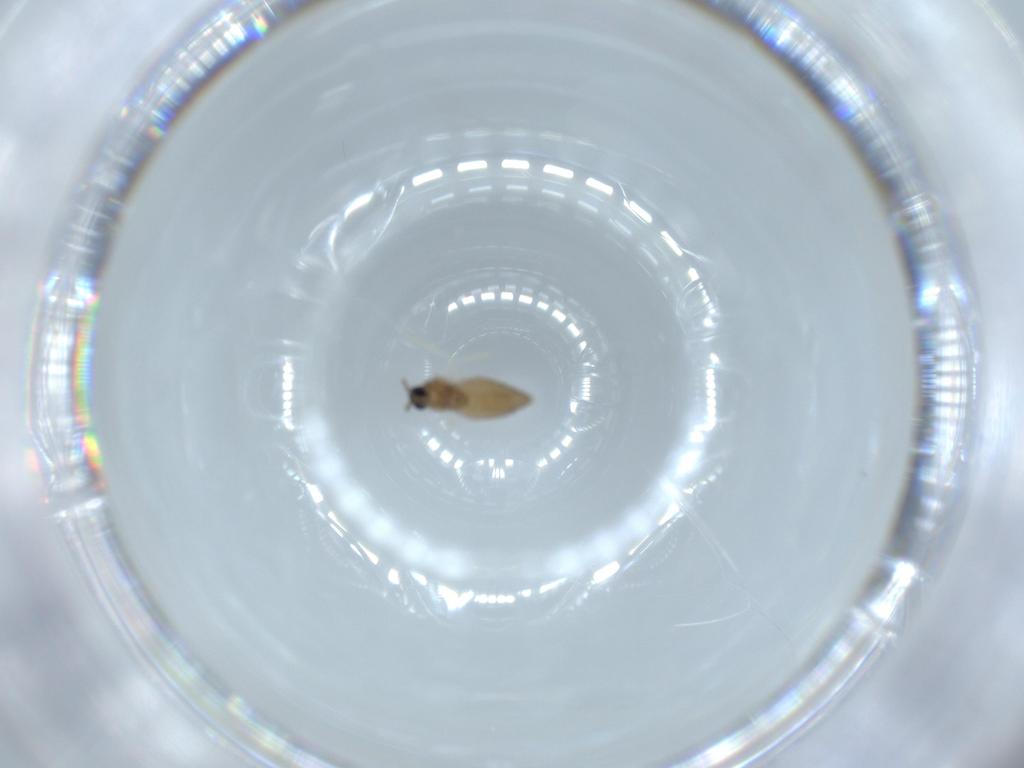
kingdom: Animalia
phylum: Arthropoda
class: Insecta
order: Diptera
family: Cecidomyiidae
